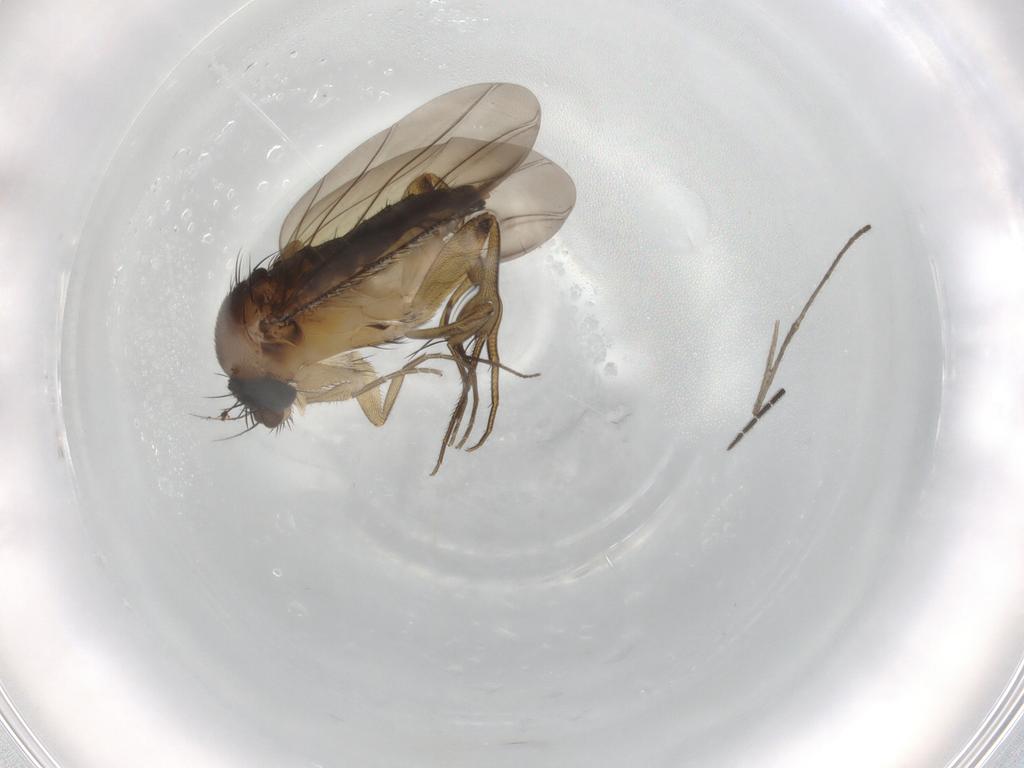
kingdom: Animalia
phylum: Arthropoda
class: Insecta
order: Diptera
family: Phoridae
